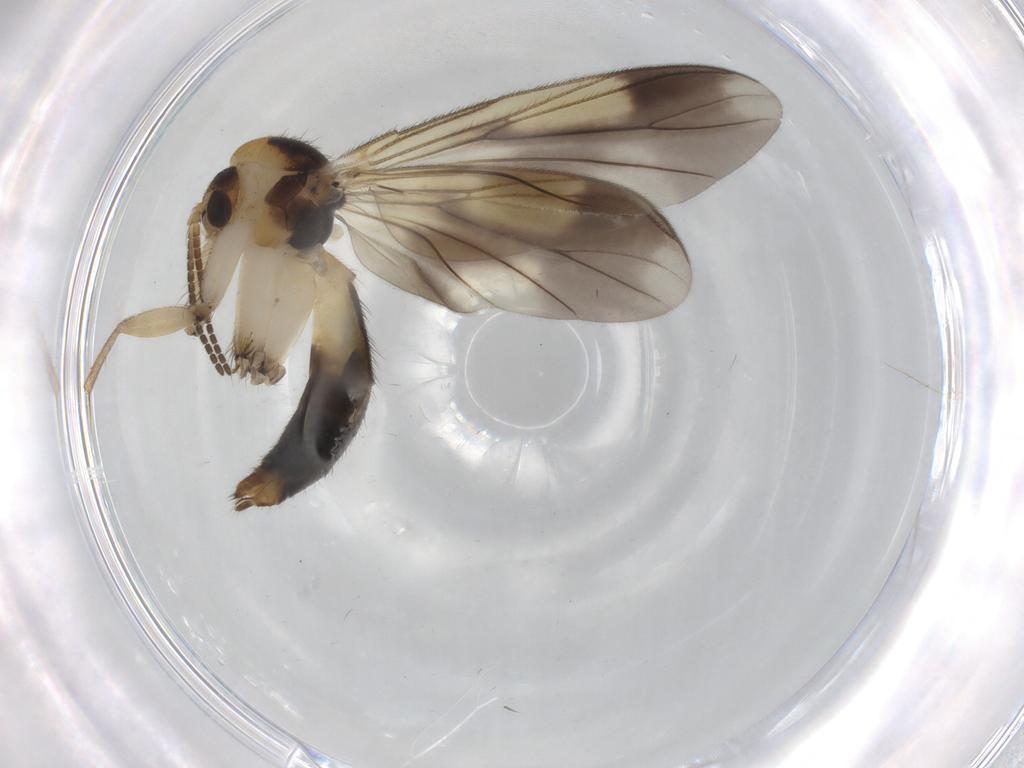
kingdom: Animalia
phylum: Arthropoda
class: Insecta
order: Diptera
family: Mycetophilidae
